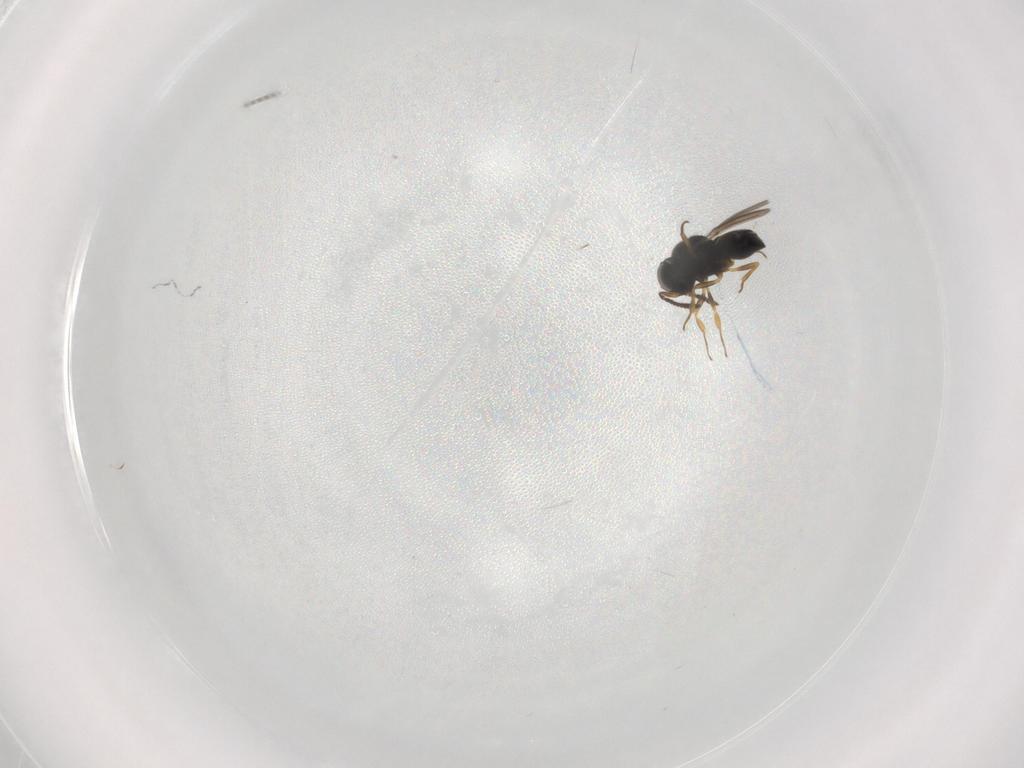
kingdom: Animalia
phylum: Arthropoda
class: Insecta
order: Hymenoptera
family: Scelionidae
